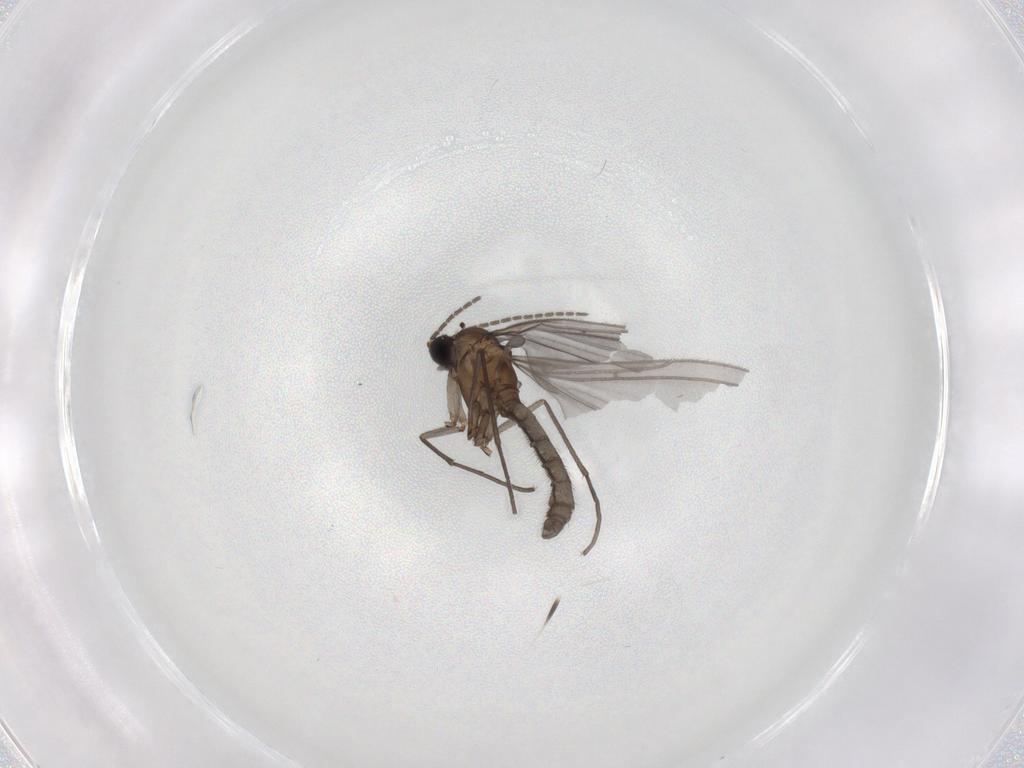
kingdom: Animalia
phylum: Arthropoda
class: Insecta
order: Diptera
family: Sciaridae
